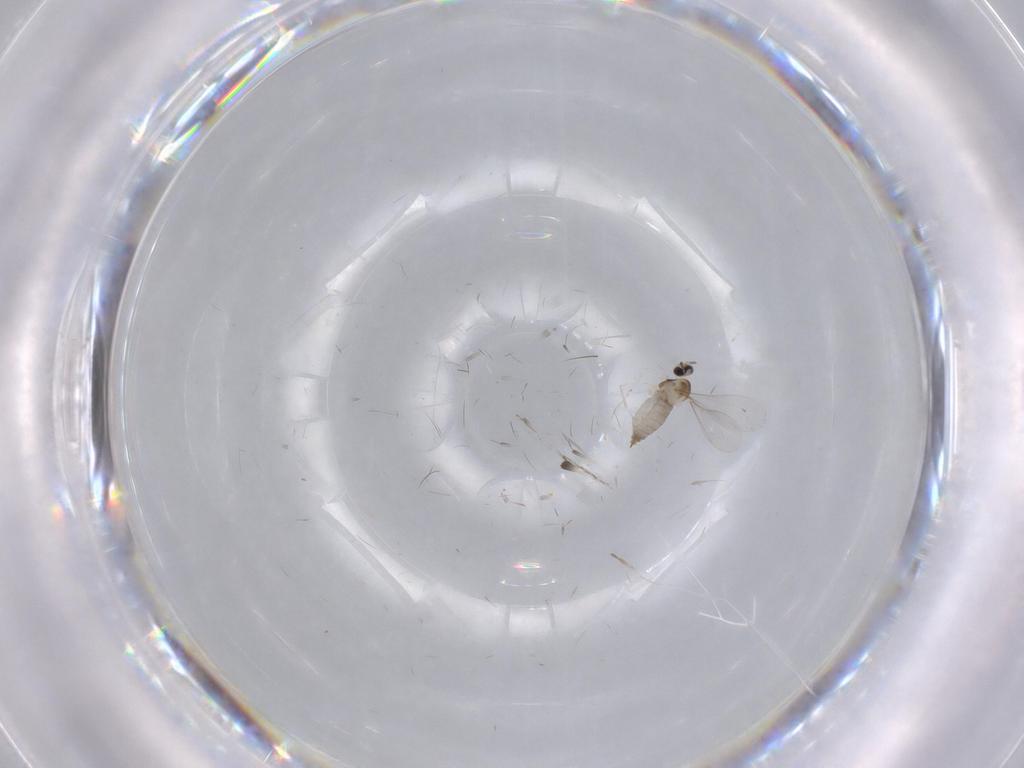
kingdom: Animalia
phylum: Arthropoda
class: Insecta
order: Diptera
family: Cecidomyiidae
